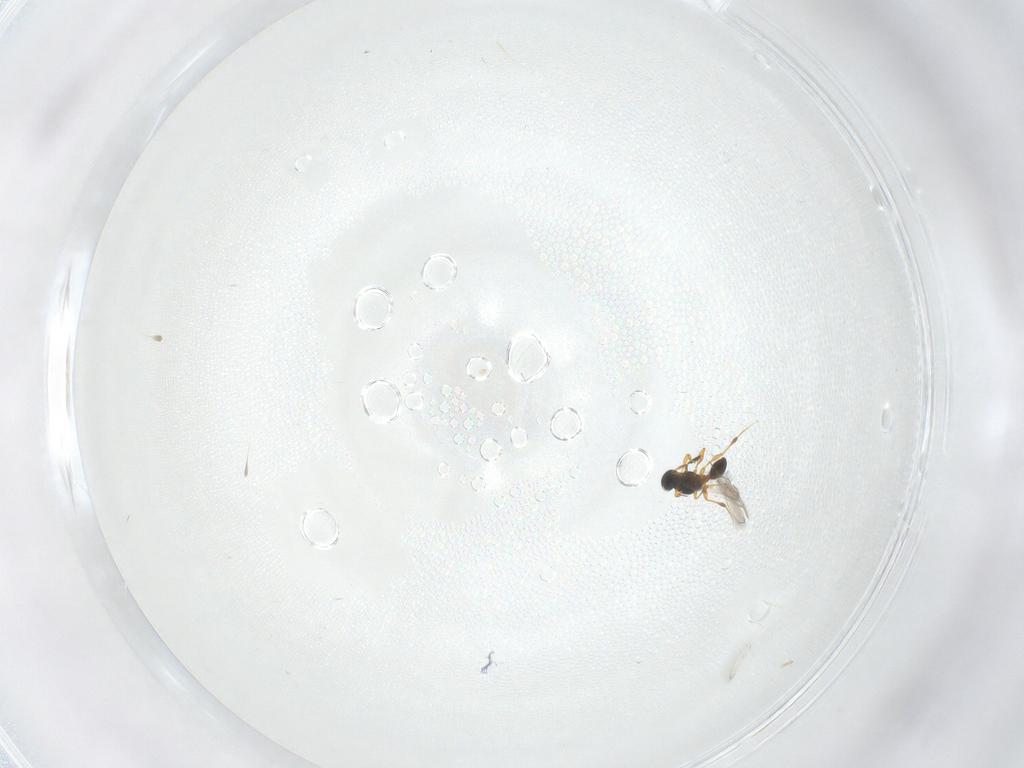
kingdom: Animalia
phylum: Arthropoda
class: Insecta
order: Hymenoptera
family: Platygastridae
